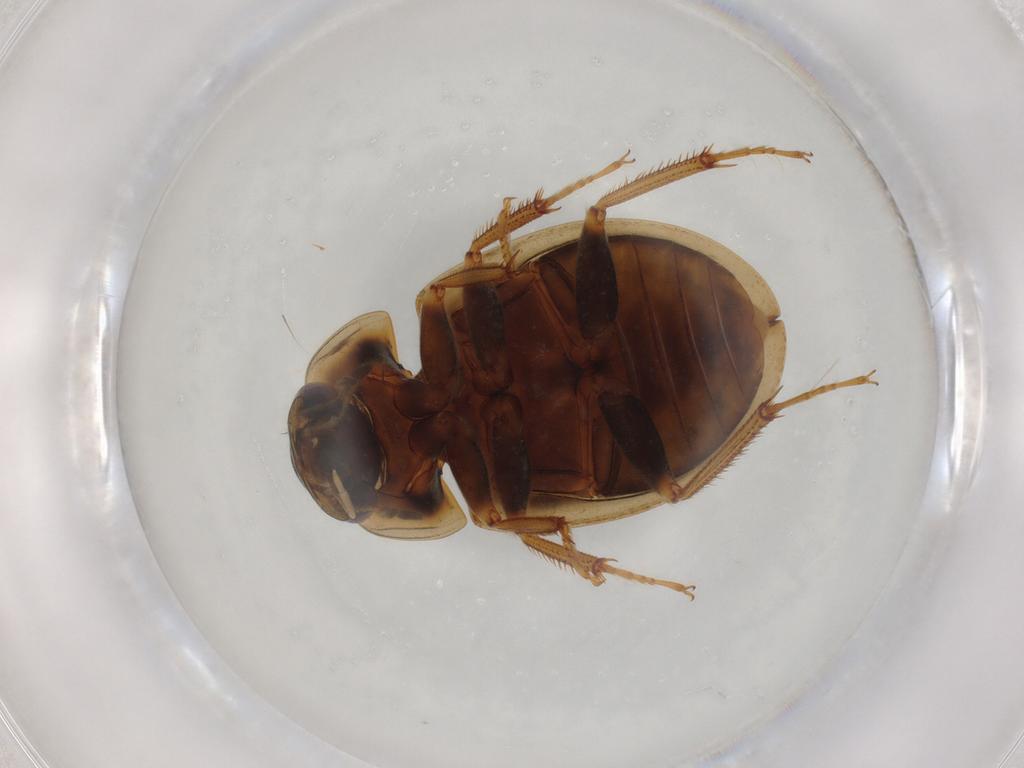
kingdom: Animalia
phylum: Arthropoda
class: Insecta
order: Coleoptera
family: Hydrophilidae
